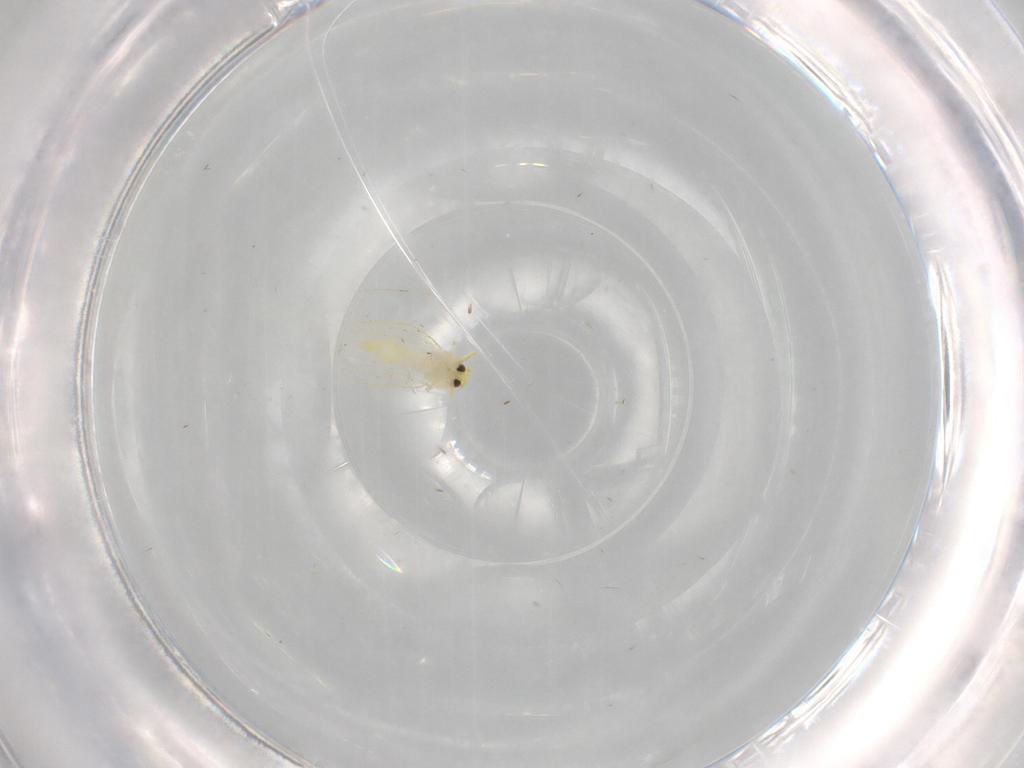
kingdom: Animalia
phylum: Arthropoda
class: Insecta
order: Hemiptera
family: Aleyrodidae
